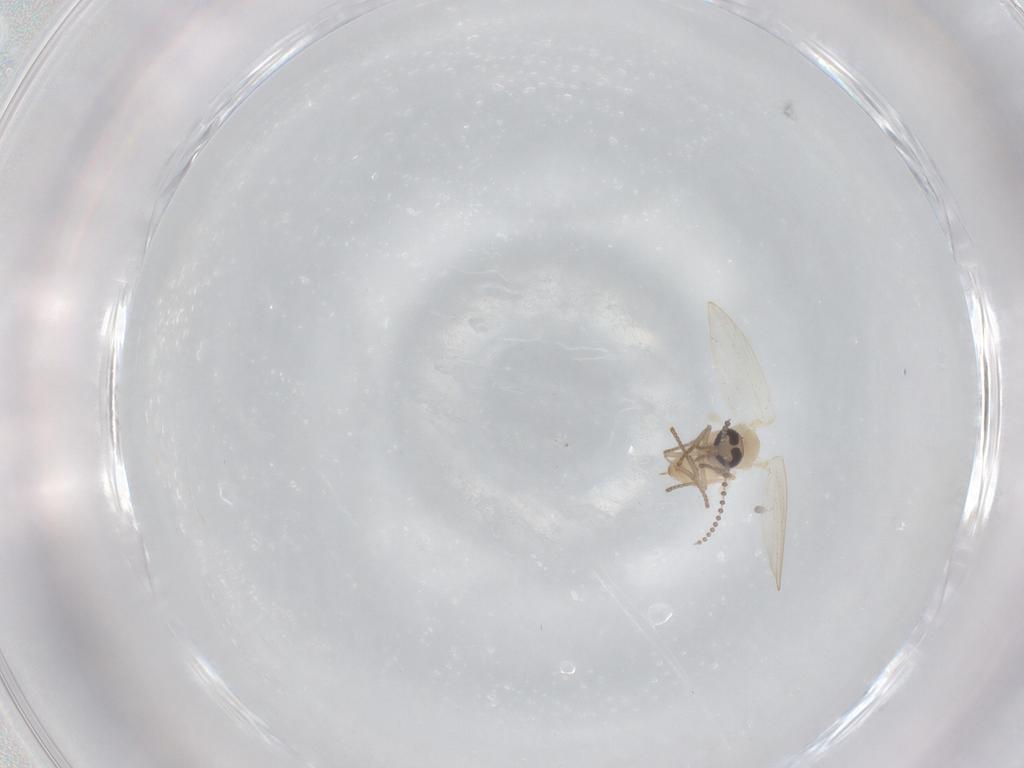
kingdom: Animalia
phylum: Arthropoda
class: Insecta
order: Diptera
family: Psychodidae
